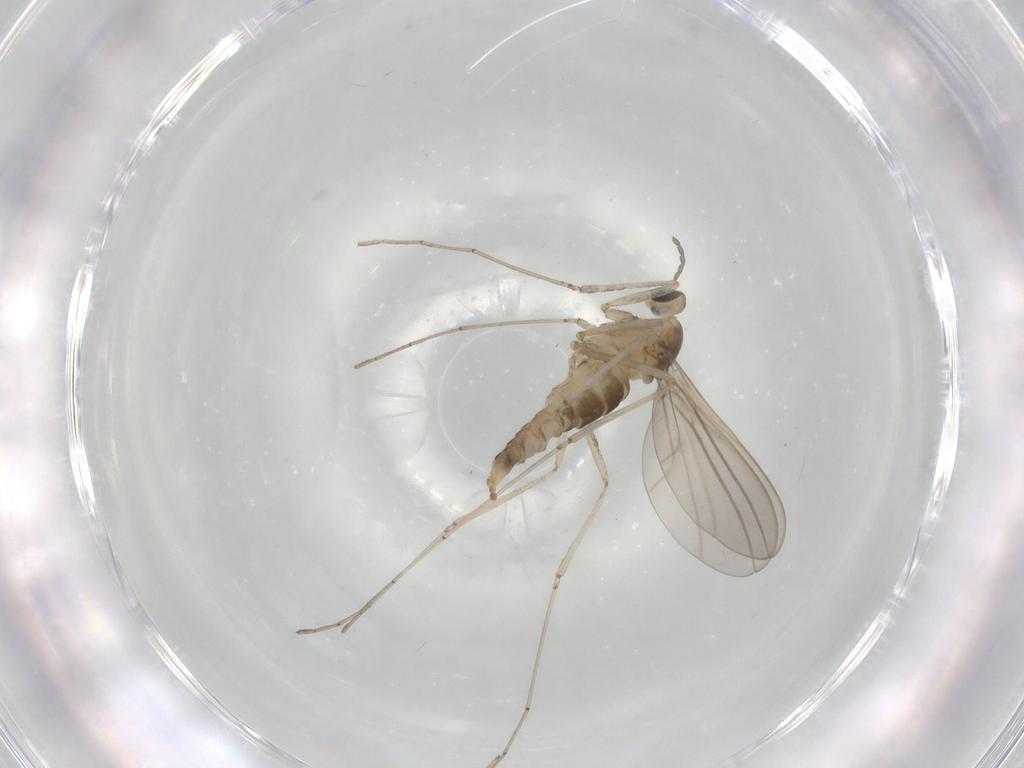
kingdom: Animalia
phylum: Arthropoda
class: Insecta
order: Diptera
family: Cecidomyiidae
